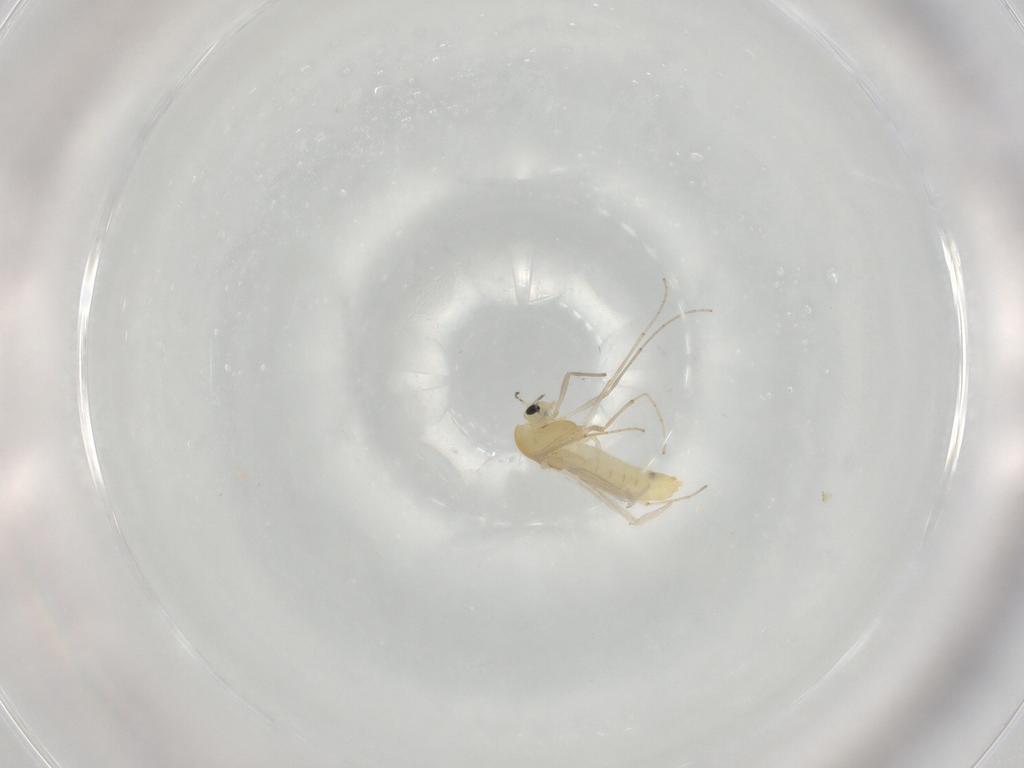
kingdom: Animalia
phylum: Arthropoda
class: Insecta
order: Diptera
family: Chironomidae
